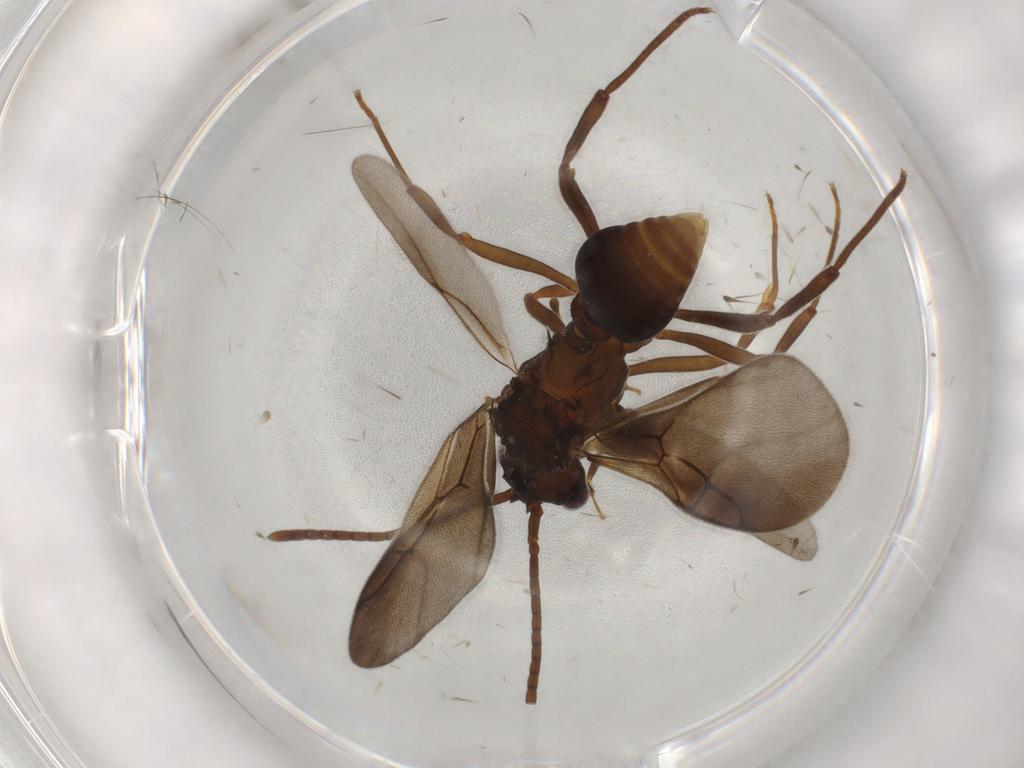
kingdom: Animalia
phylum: Arthropoda
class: Insecta
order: Hymenoptera
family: Formicidae
